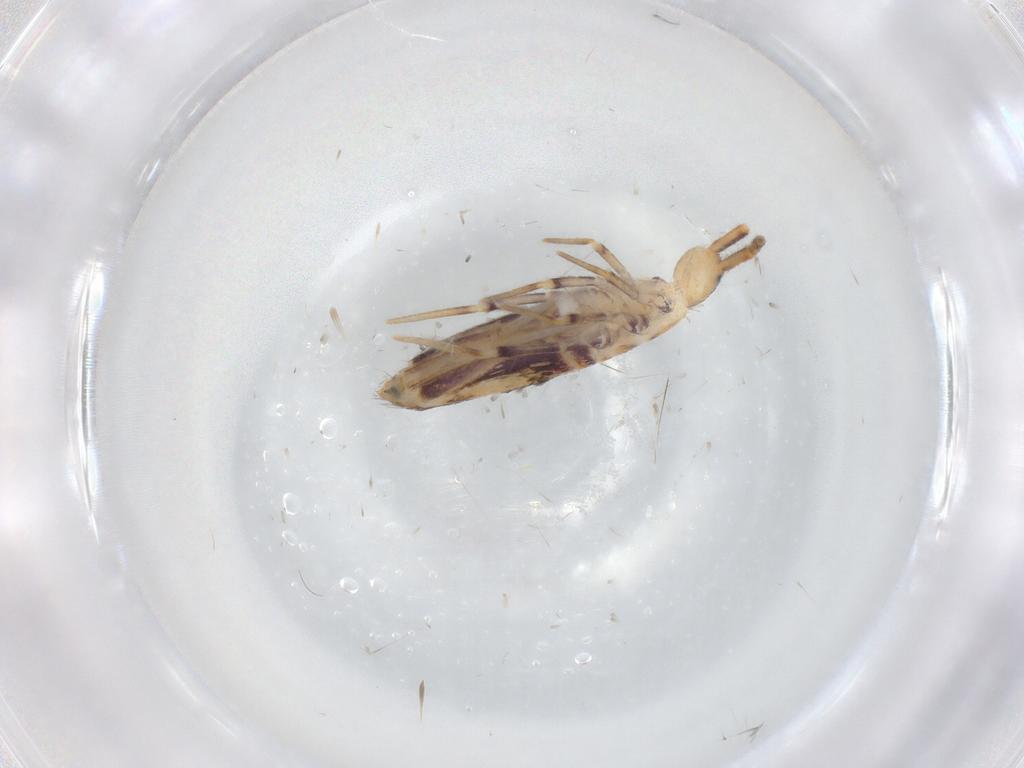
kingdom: Animalia
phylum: Arthropoda
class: Collembola
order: Poduromorpha
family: Hypogastruridae
